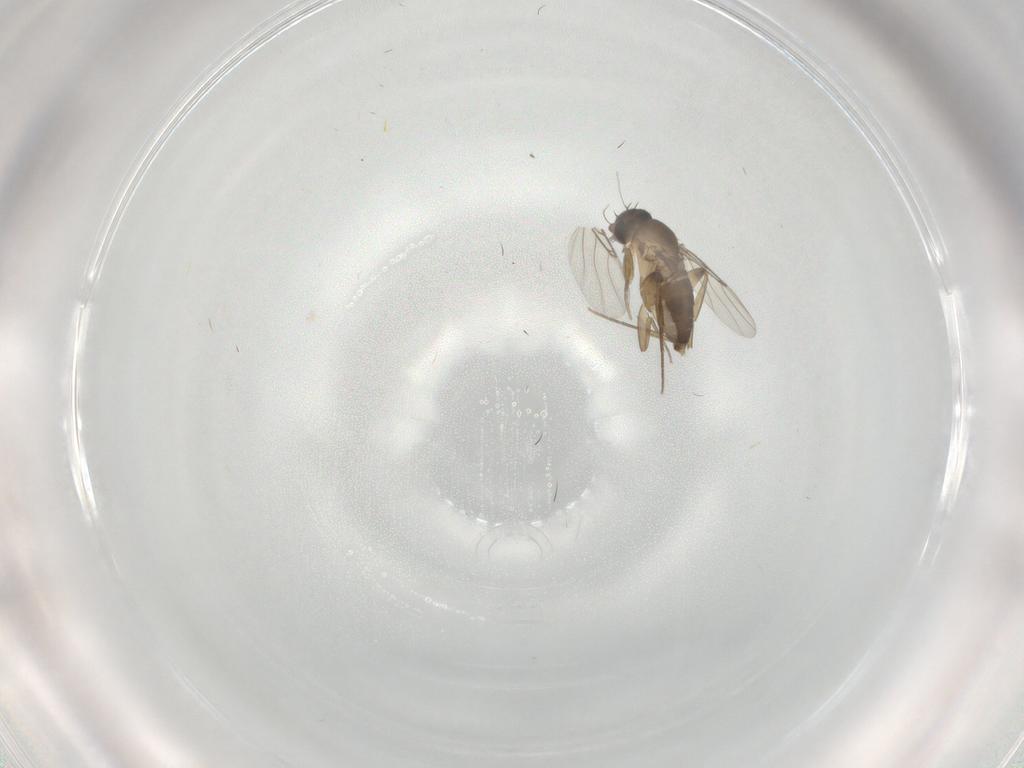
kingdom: Animalia
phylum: Arthropoda
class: Insecta
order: Diptera
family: Phoridae
